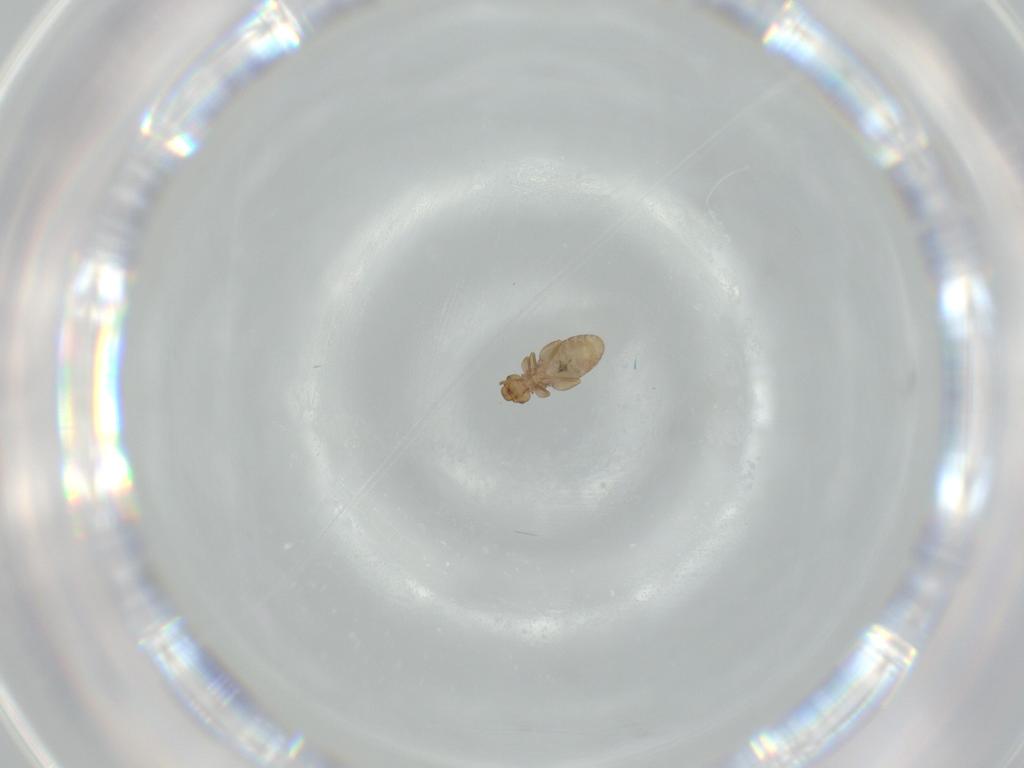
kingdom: Animalia
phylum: Arthropoda
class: Insecta
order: Psocodea
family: Liposcelididae
